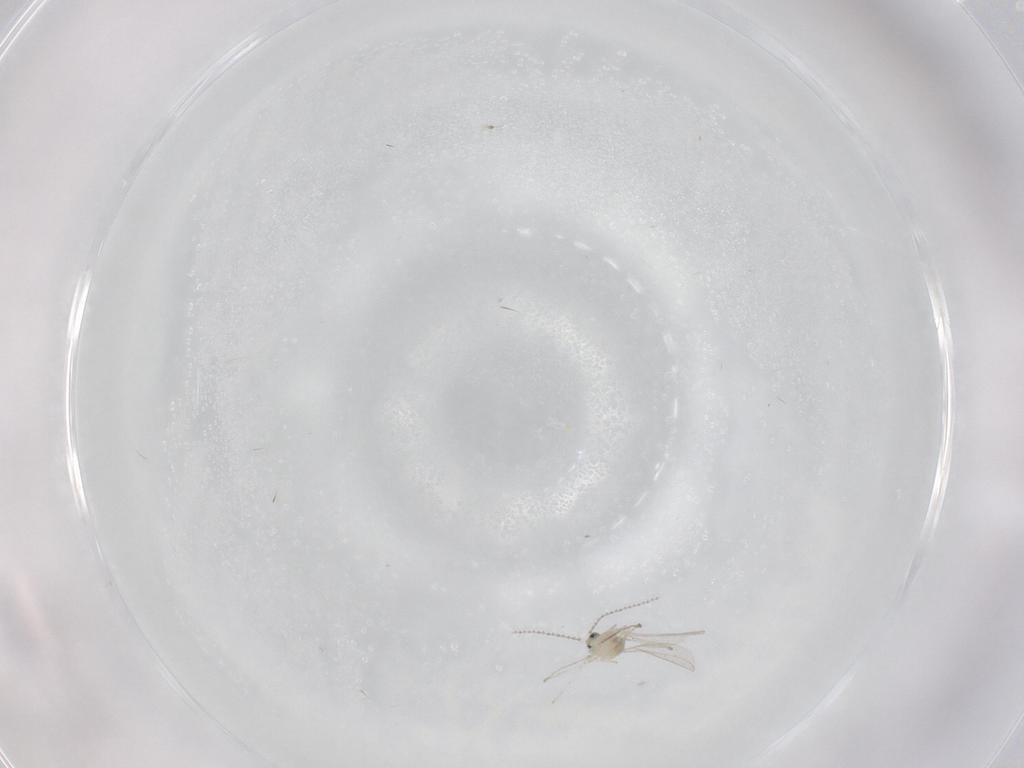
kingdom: Animalia
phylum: Arthropoda
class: Insecta
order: Diptera
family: Cecidomyiidae
